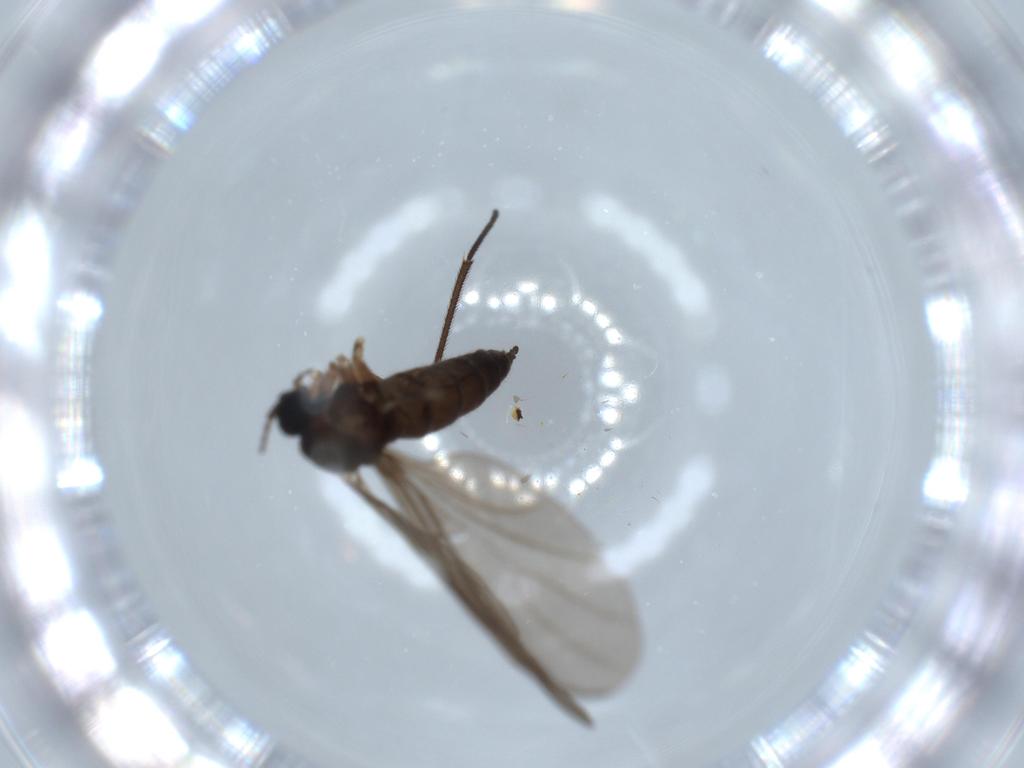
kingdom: Animalia
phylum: Arthropoda
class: Insecta
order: Diptera
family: Sciaridae
